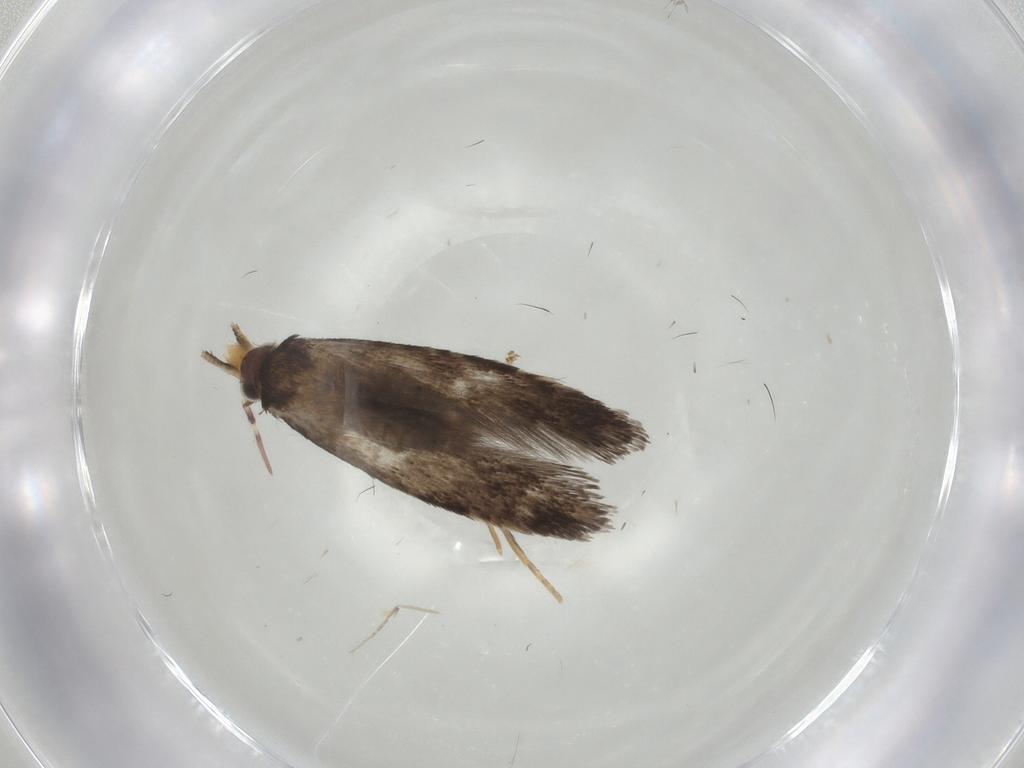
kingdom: Animalia
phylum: Arthropoda
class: Insecta
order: Lepidoptera
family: Tineidae
